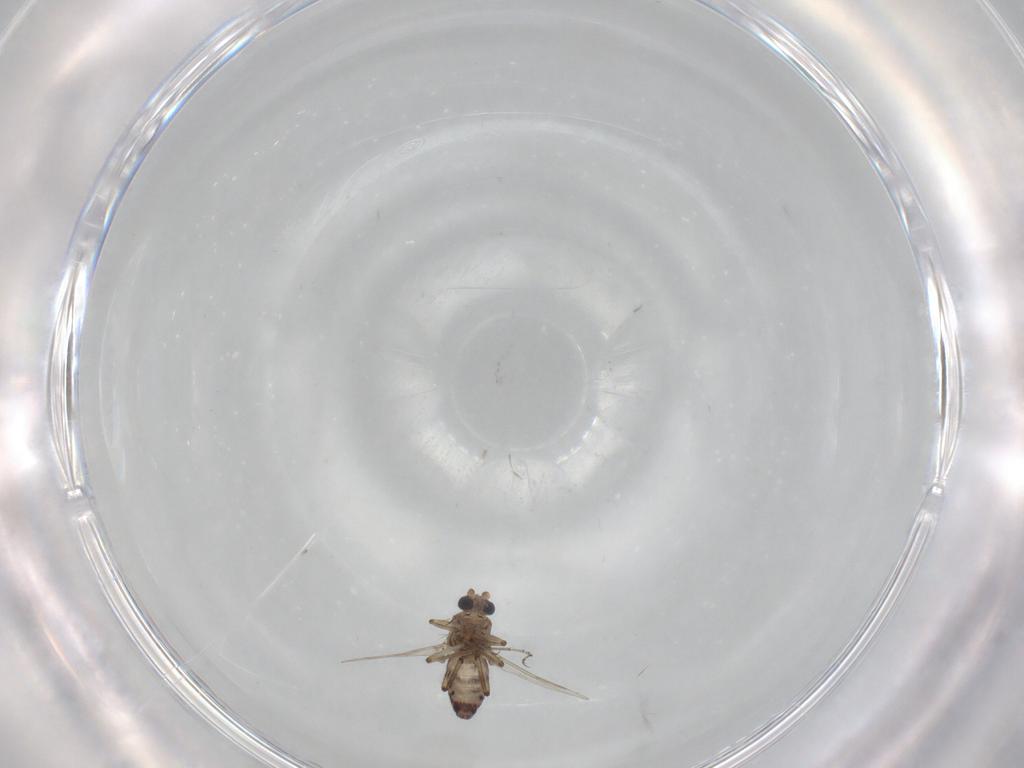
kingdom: Animalia
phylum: Arthropoda
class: Insecta
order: Diptera
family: Ceratopogonidae
